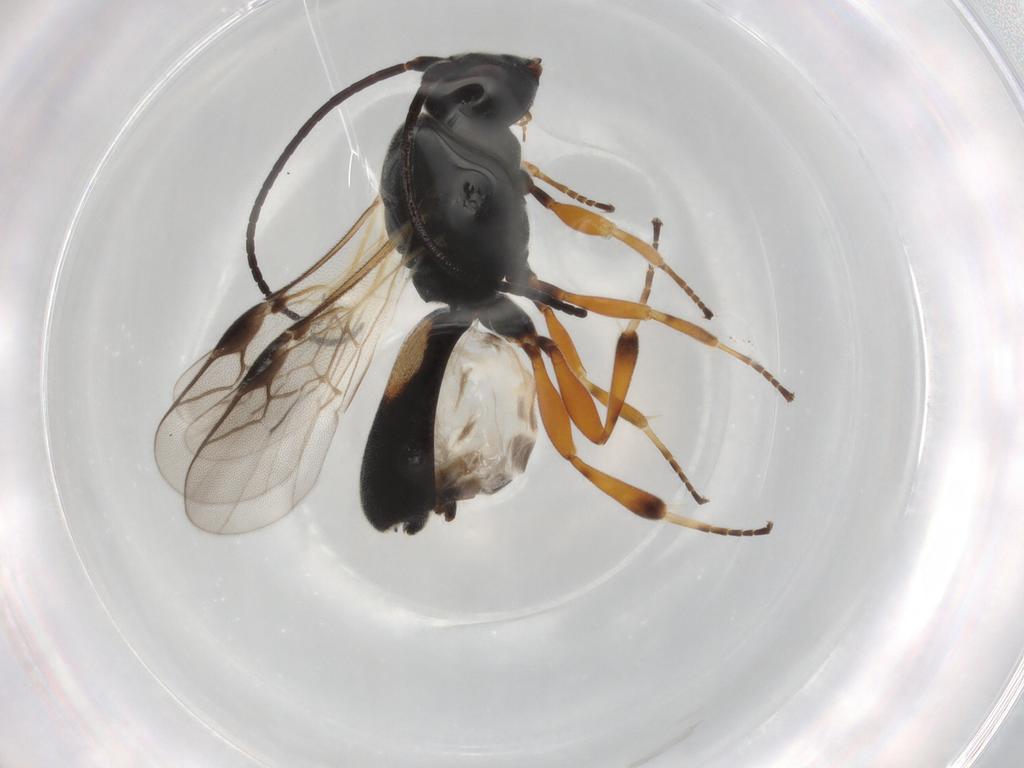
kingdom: Animalia
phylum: Arthropoda
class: Insecta
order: Hymenoptera
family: Braconidae
